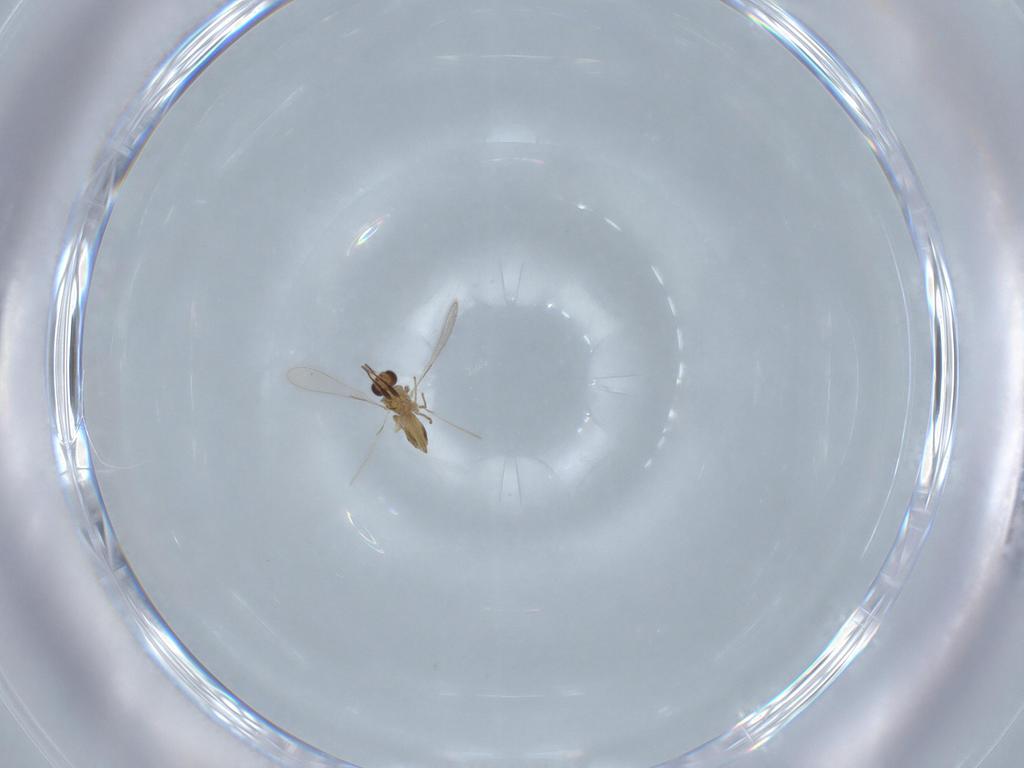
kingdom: Animalia
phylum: Arthropoda
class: Insecta
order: Hymenoptera
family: Mymaridae
